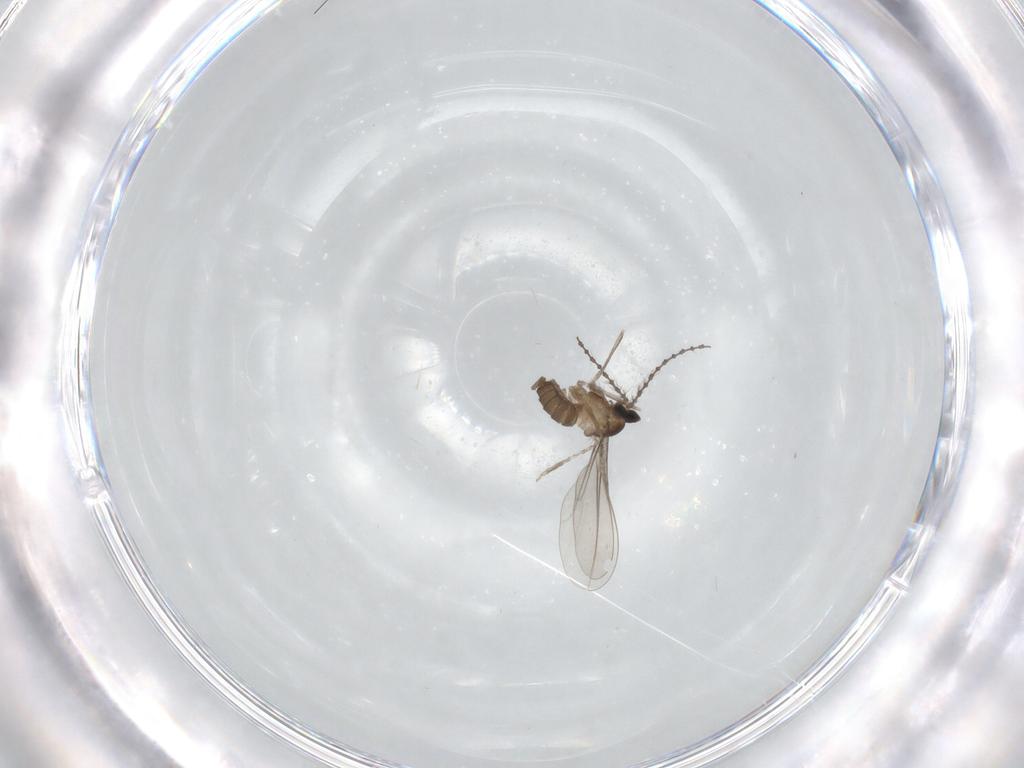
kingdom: Animalia
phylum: Arthropoda
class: Insecta
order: Diptera
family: Cecidomyiidae
